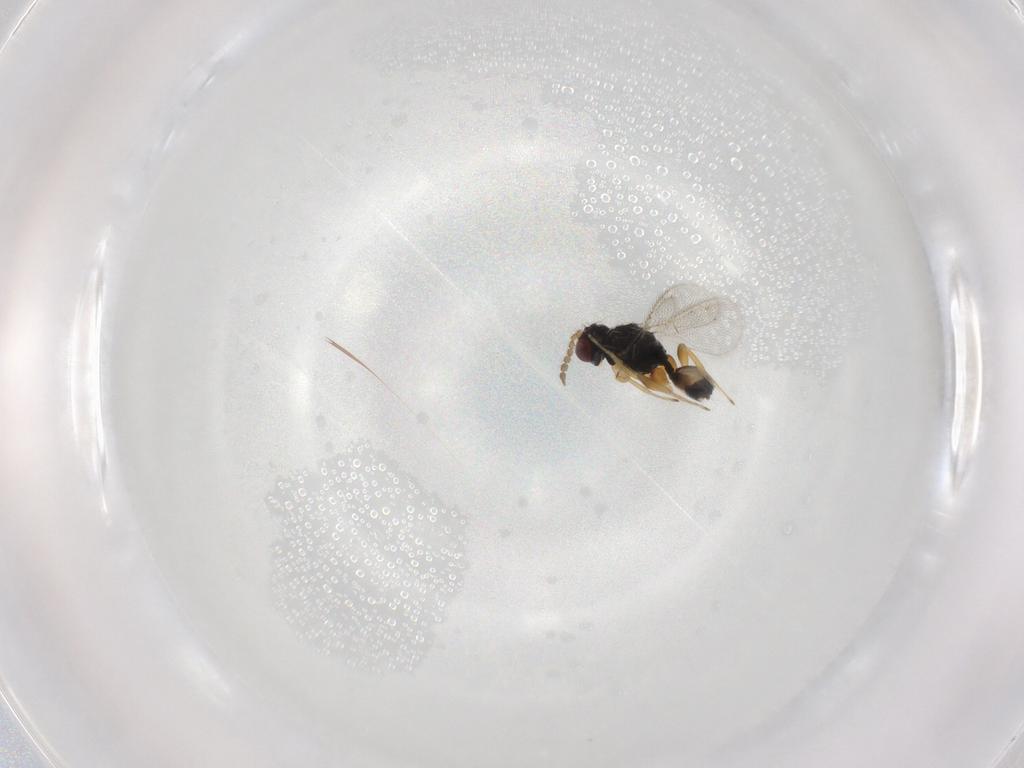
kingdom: Animalia
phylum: Arthropoda
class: Insecta
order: Hymenoptera
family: Eulophidae
